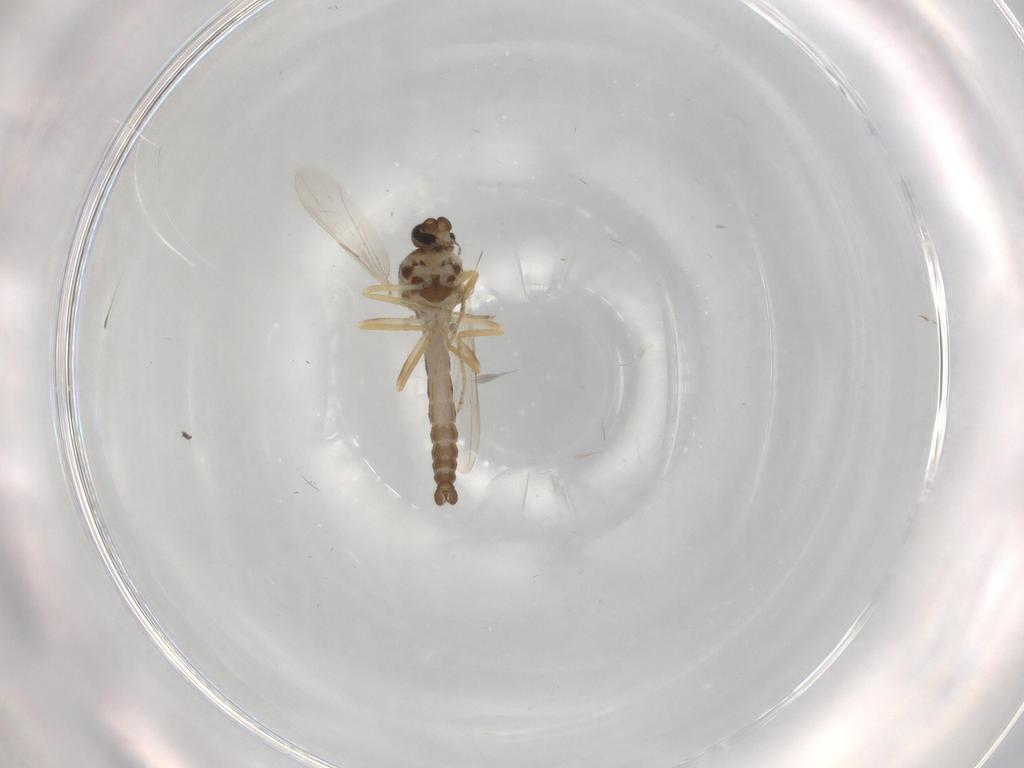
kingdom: Animalia
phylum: Arthropoda
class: Insecta
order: Diptera
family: Ceratopogonidae
